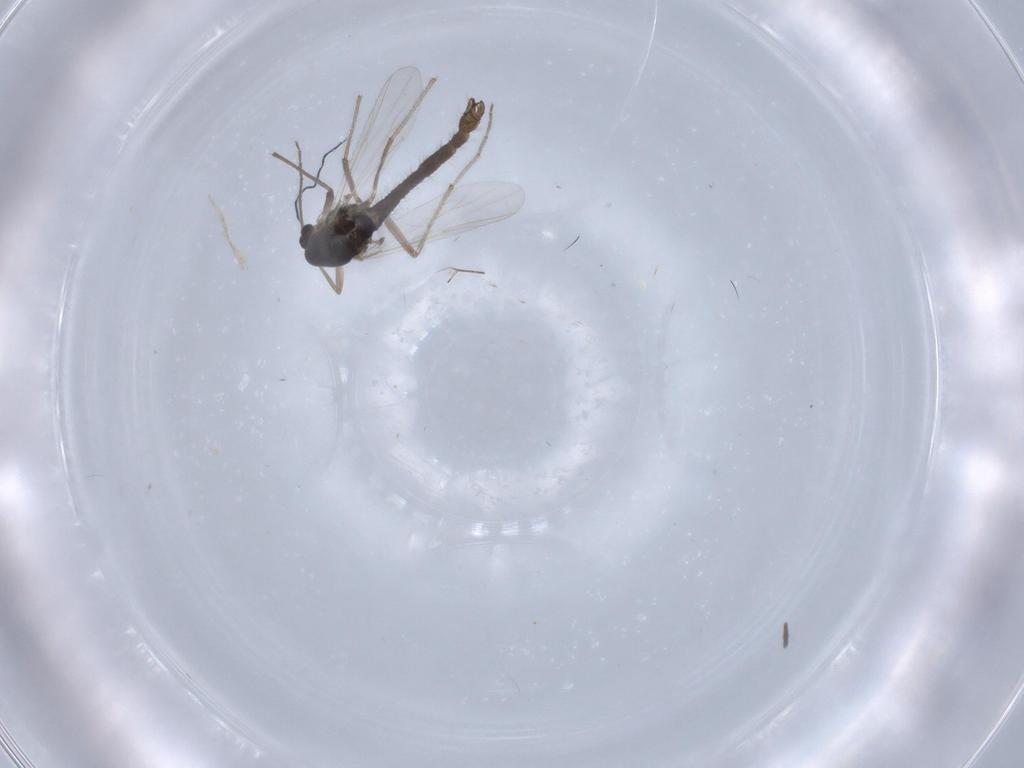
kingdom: Animalia
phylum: Arthropoda
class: Insecta
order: Diptera
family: Chironomidae
